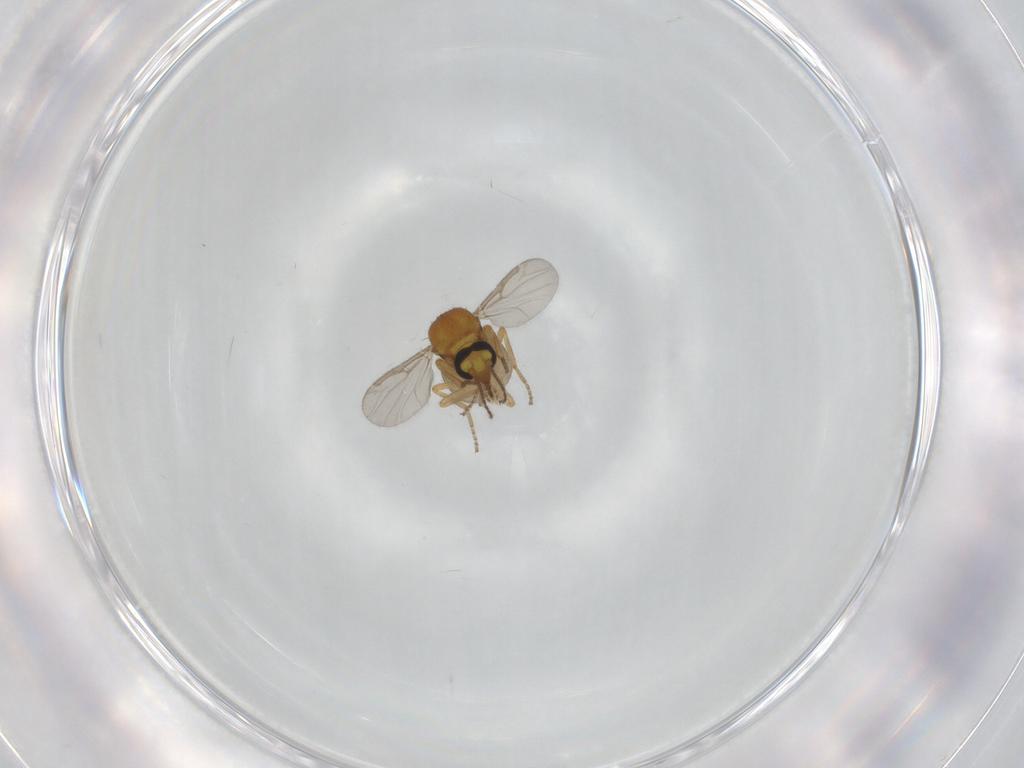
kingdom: Animalia
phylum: Arthropoda
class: Insecta
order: Diptera
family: Ceratopogonidae
